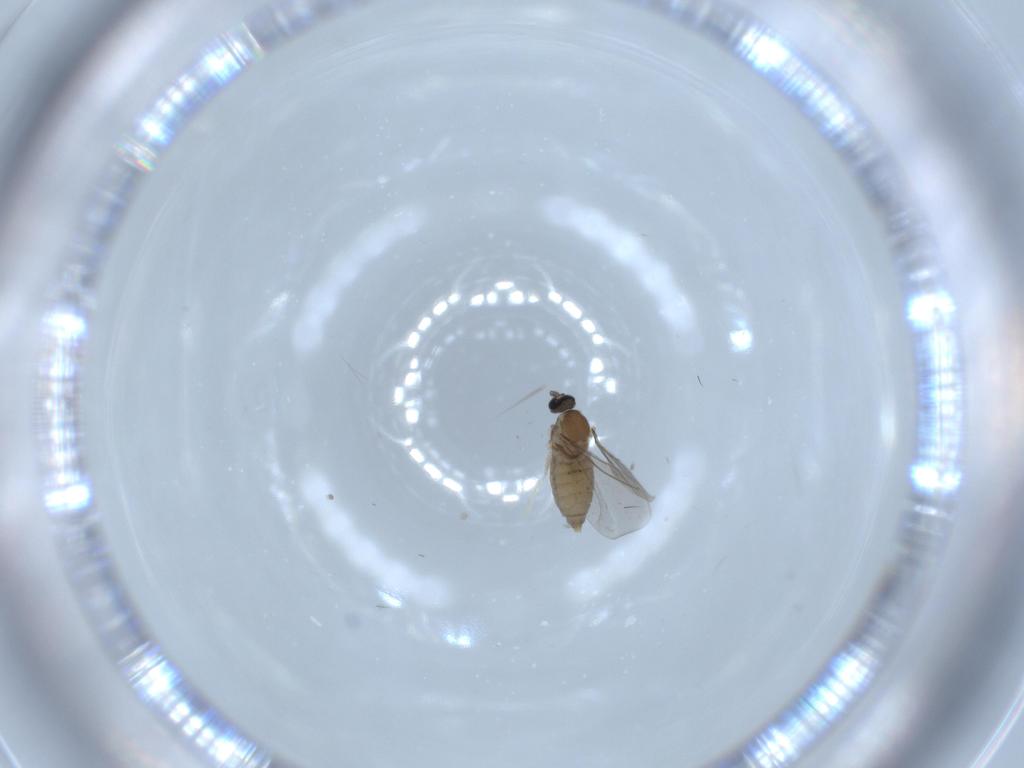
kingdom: Animalia
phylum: Arthropoda
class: Insecta
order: Diptera
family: Cecidomyiidae
